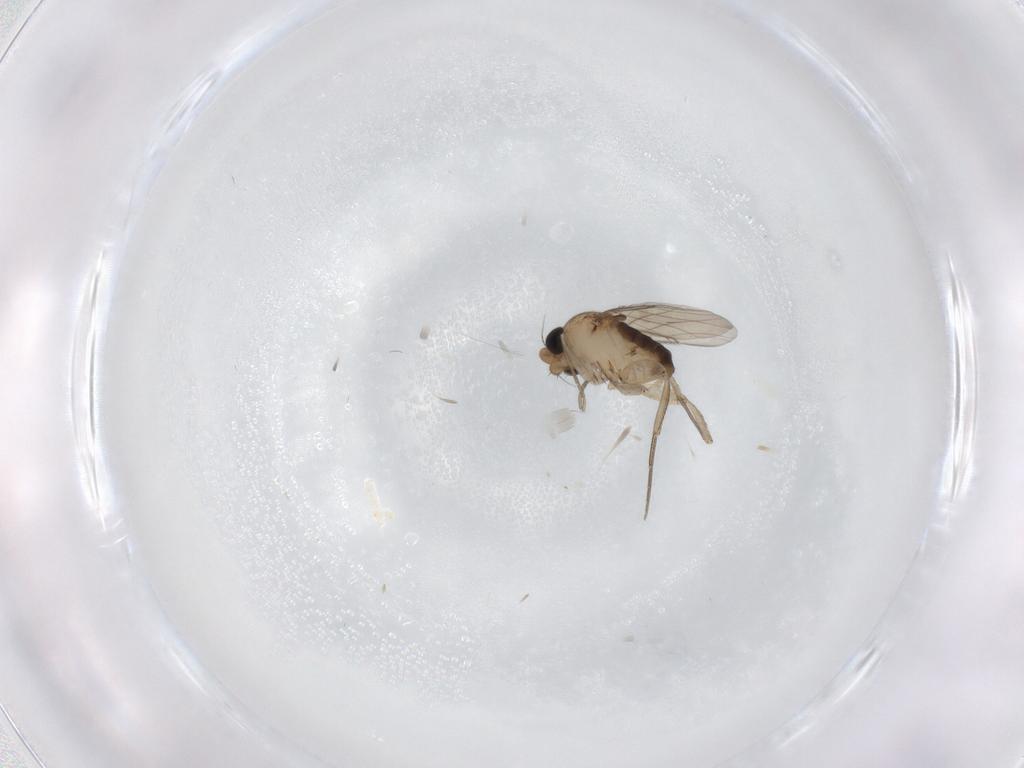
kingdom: Animalia
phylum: Arthropoda
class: Insecta
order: Diptera
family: Phoridae
